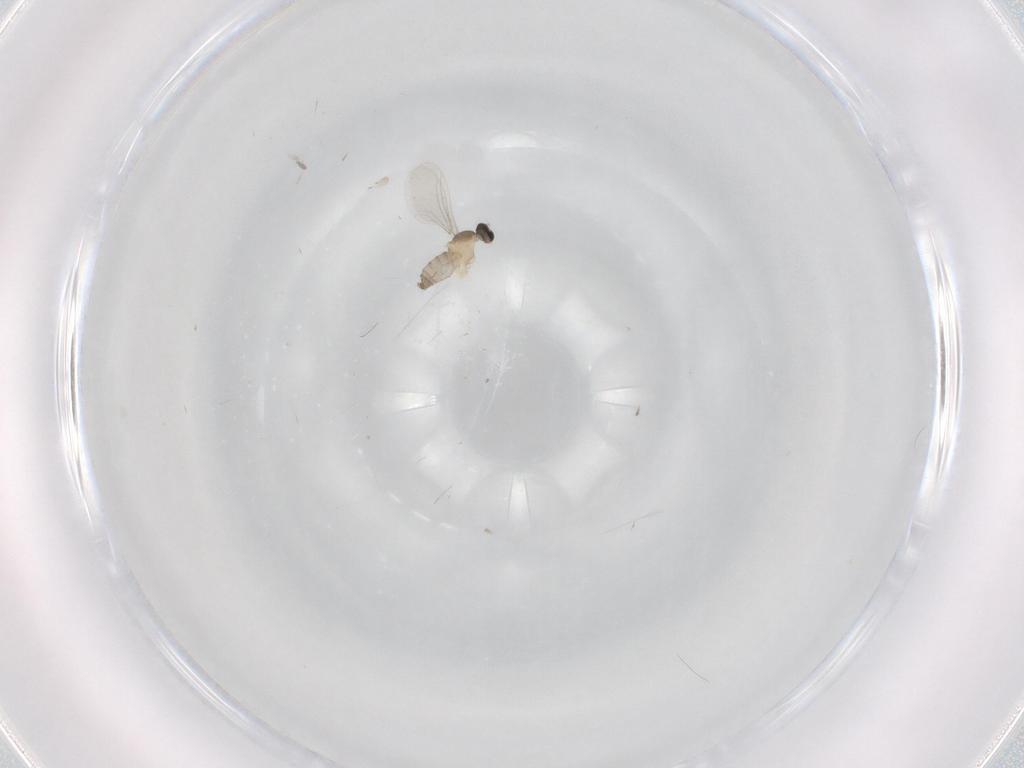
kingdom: Animalia
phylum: Arthropoda
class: Insecta
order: Diptera
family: Cecidomyiidae
